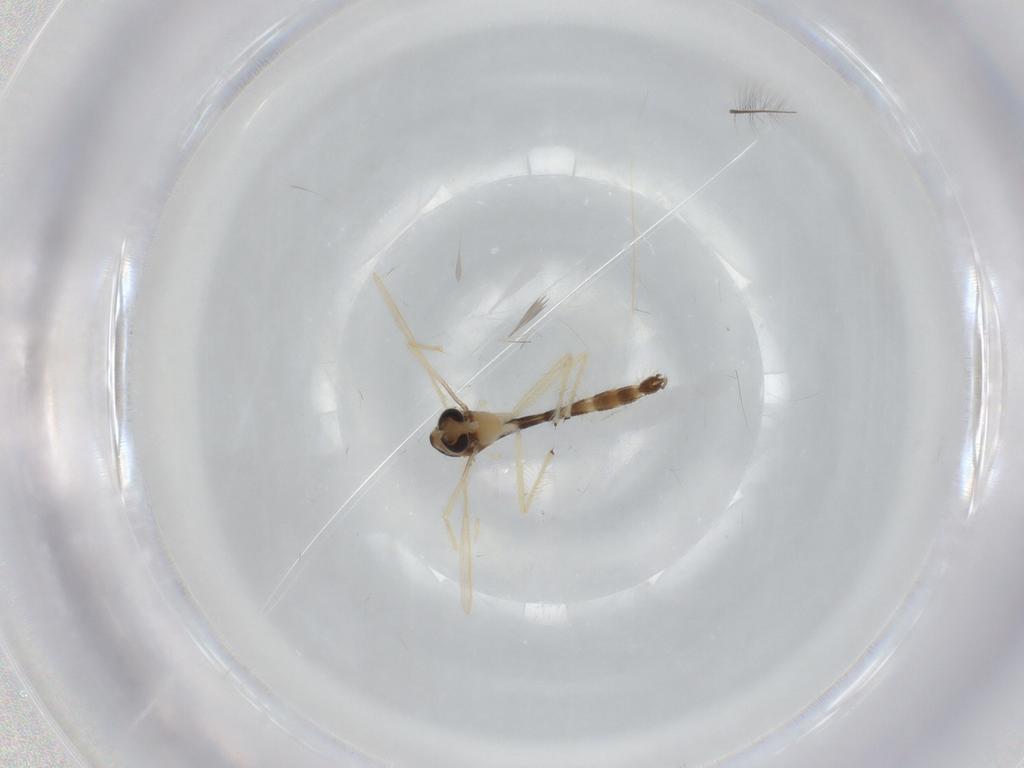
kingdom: Animalia
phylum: Arthropoda
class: Insecta
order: Diptera
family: Chironomidae
